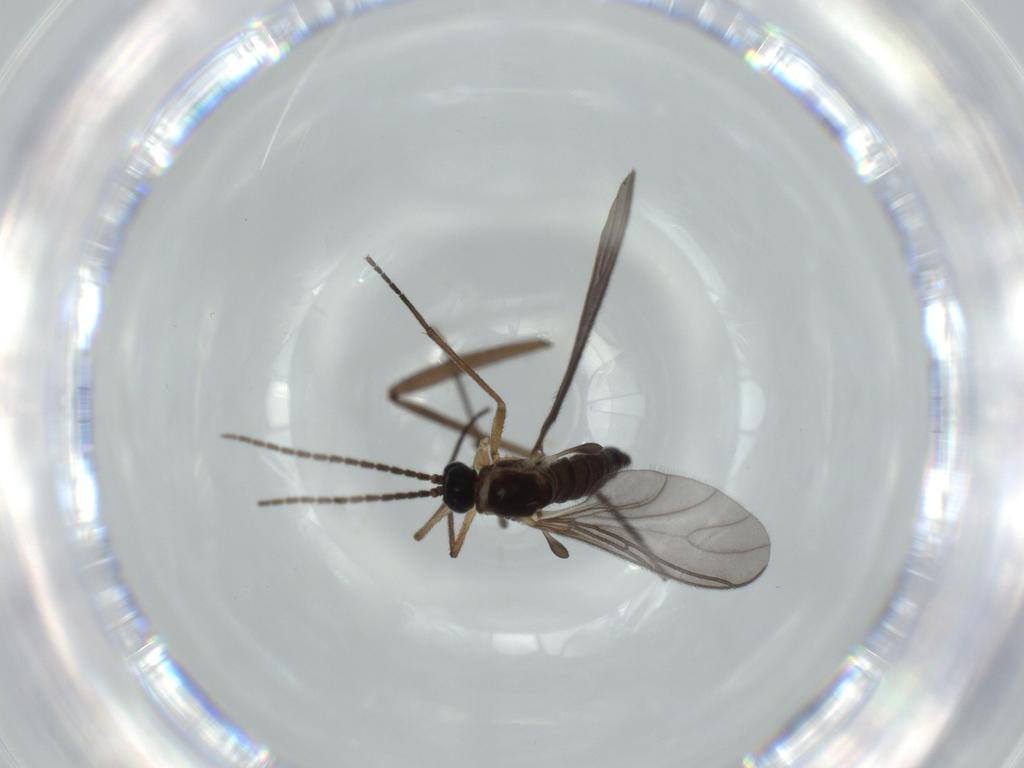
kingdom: Animalia
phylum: Arthropoda
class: Insecta
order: Diptera
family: Sciaridae
